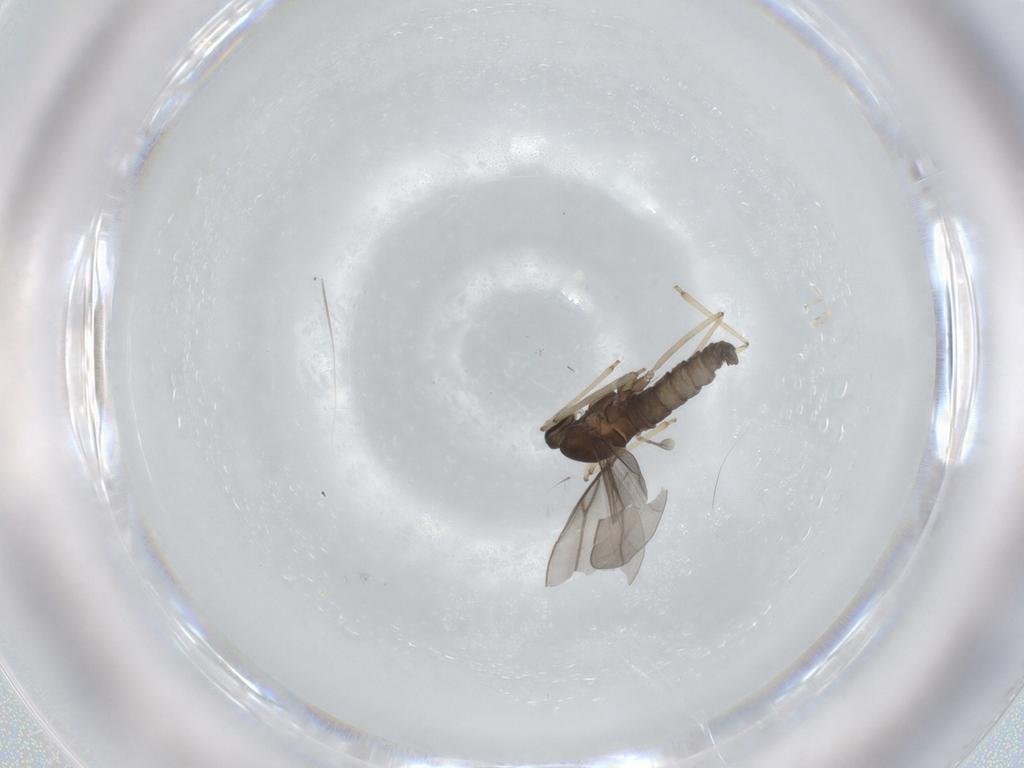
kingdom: Animalia
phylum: Arthropoda
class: Insecta
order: Diptera
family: Cecidomyiidae
